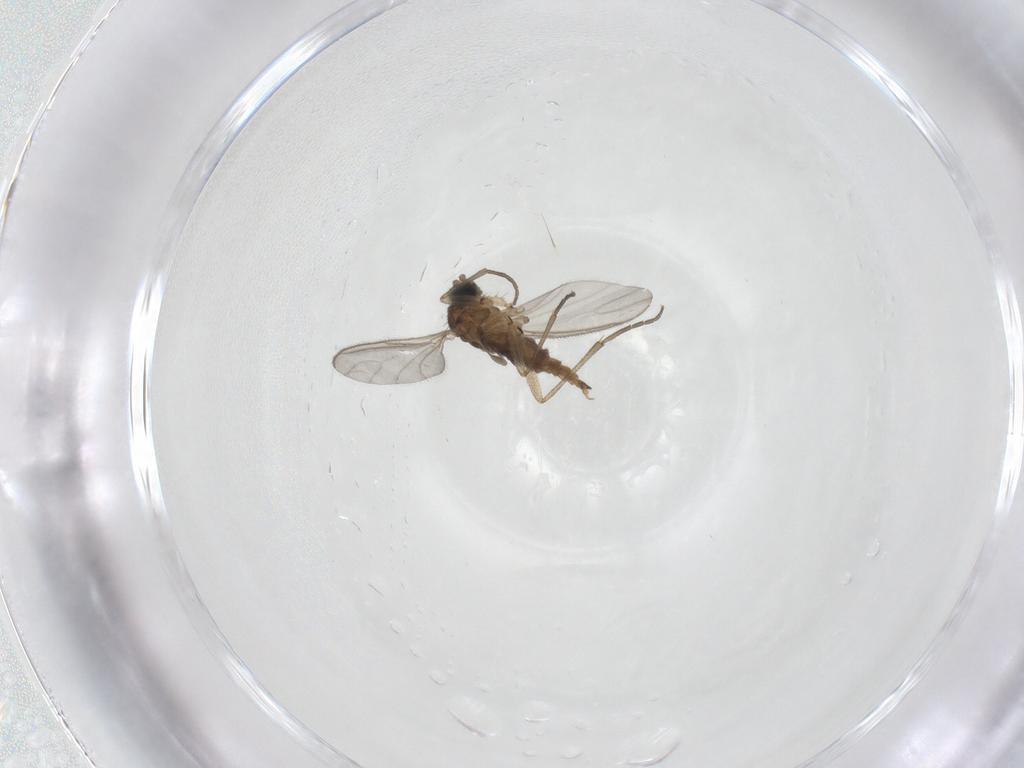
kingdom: Animalia
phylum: Arthropoda
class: Insecta
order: Diptera
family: Sciaridae
